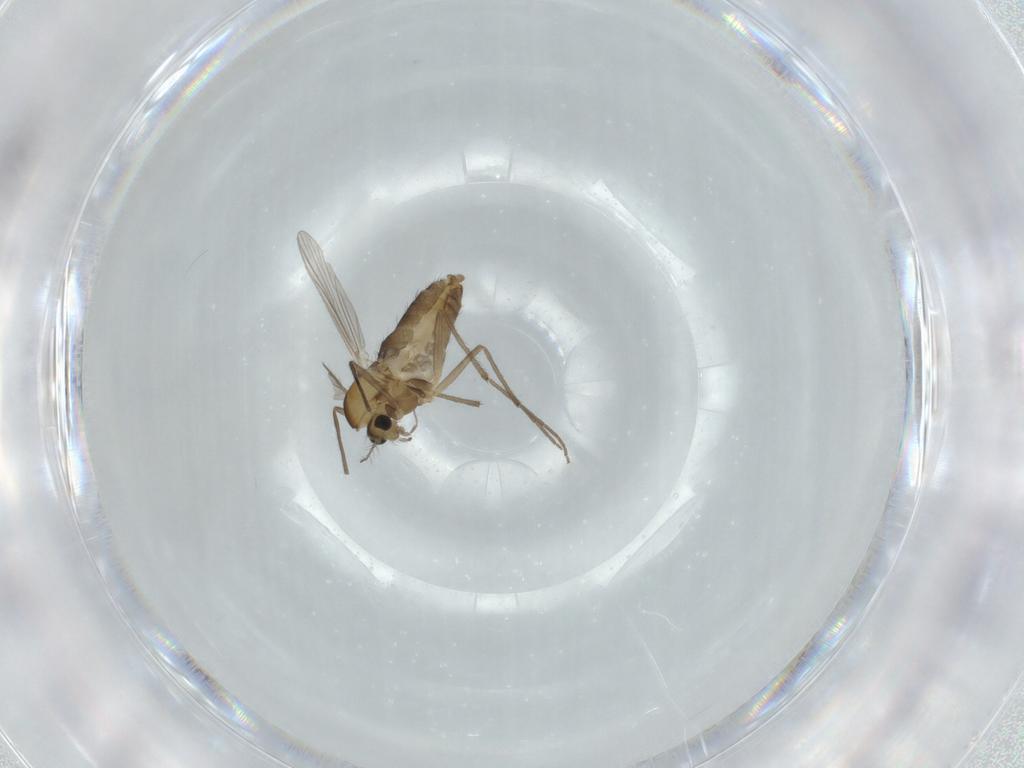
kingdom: Animalia
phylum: Arthropoda
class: Insecta
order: Diptera
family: Chironomidae
